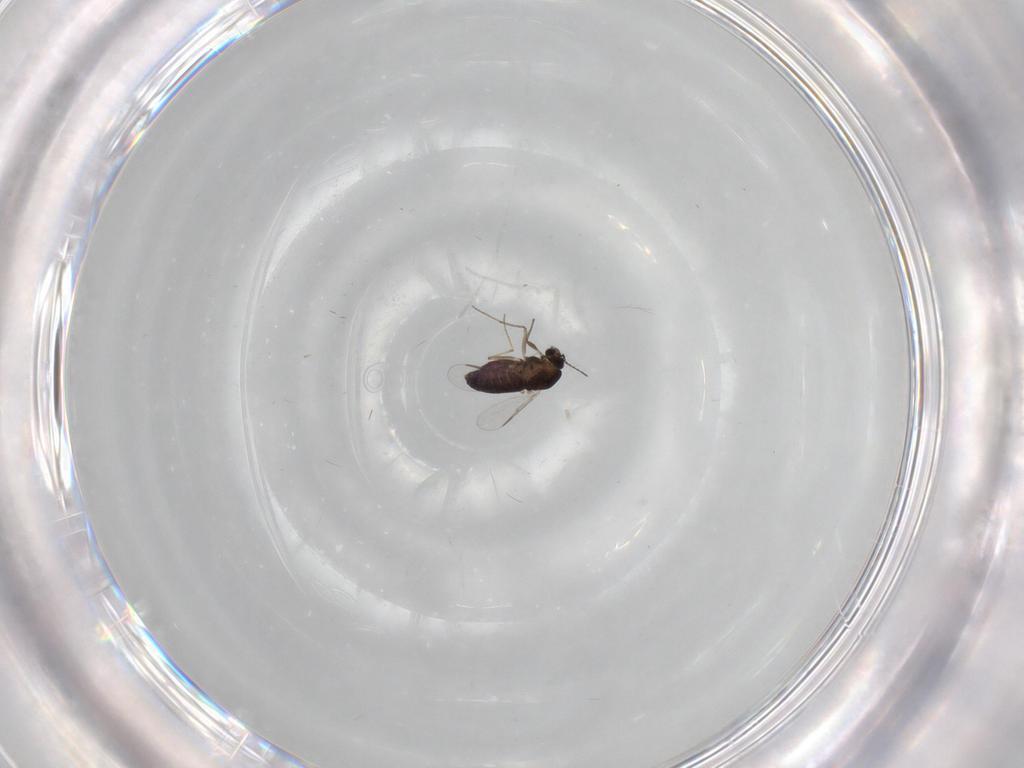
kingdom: Animalia
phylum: Arthropoda
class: Insecta
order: Diptera
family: Chironomidae
